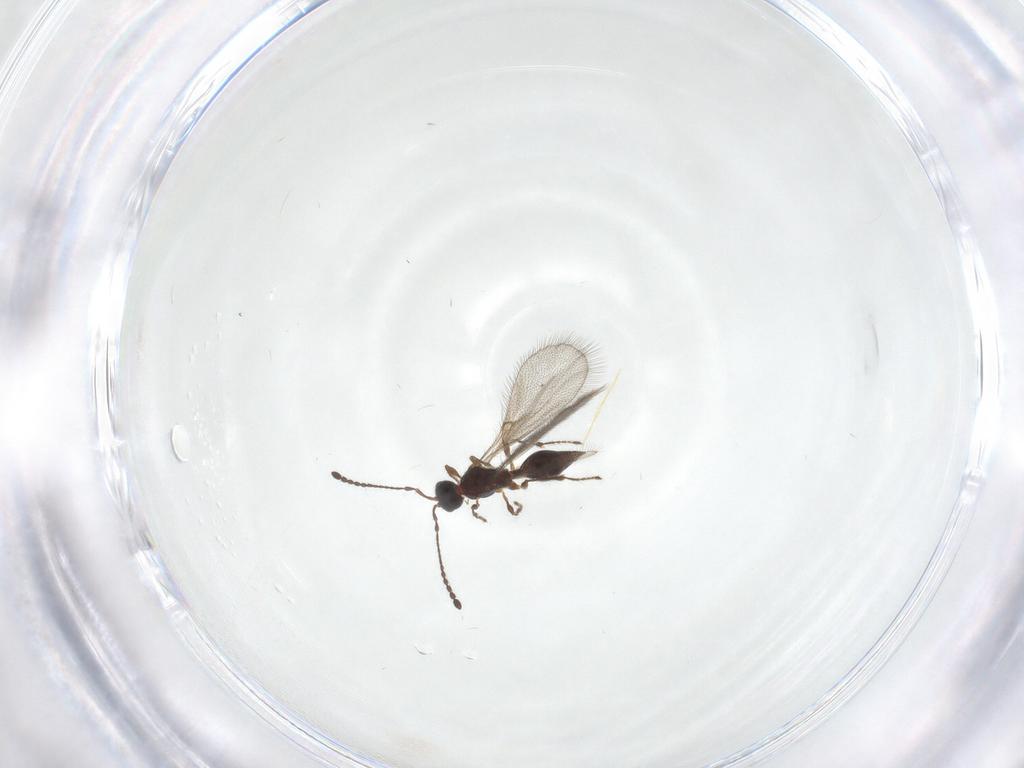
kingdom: Animalia
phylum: Arthropoda
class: Insecta
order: Hymenoptera
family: Diapriidae
